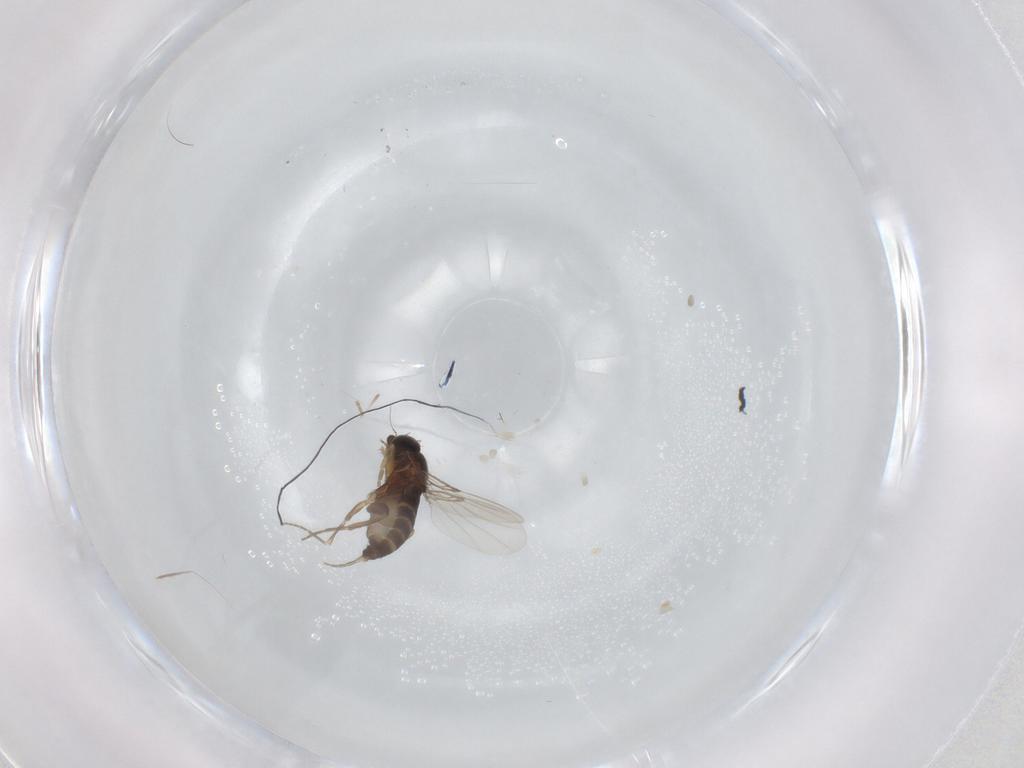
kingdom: Animalia
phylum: Arthropoda
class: Insecta
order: Diptera
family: Phoridae
